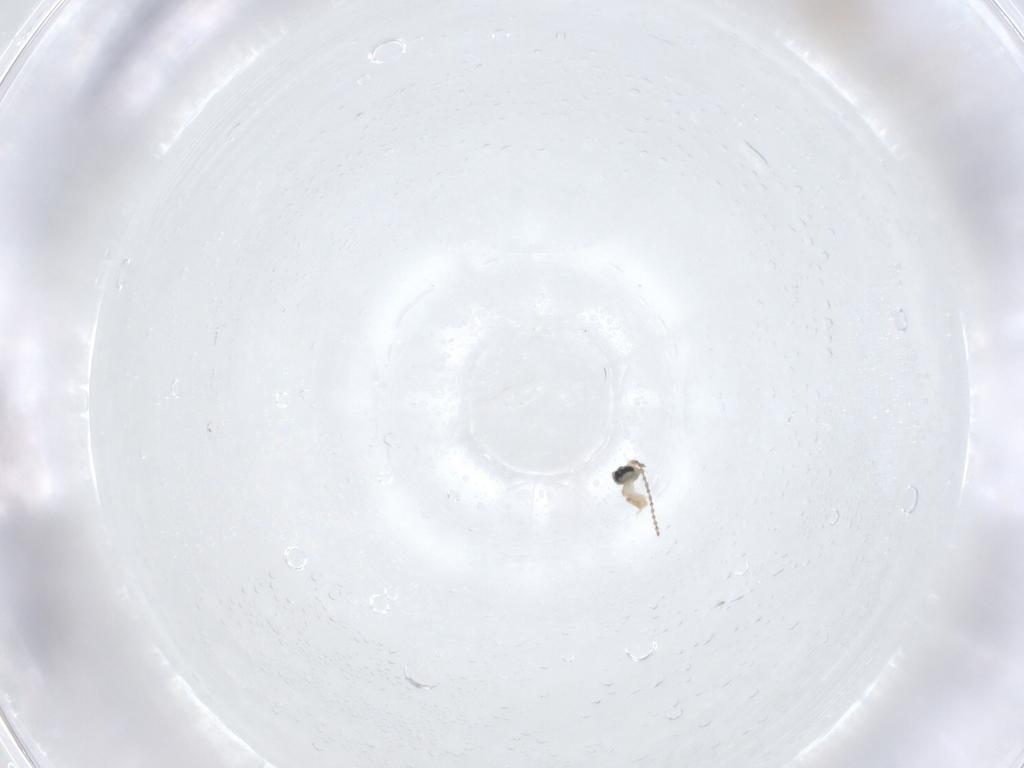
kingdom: Animalia
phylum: Arthropoda
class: Insecta
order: Diptera
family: Cecidomyiidae
